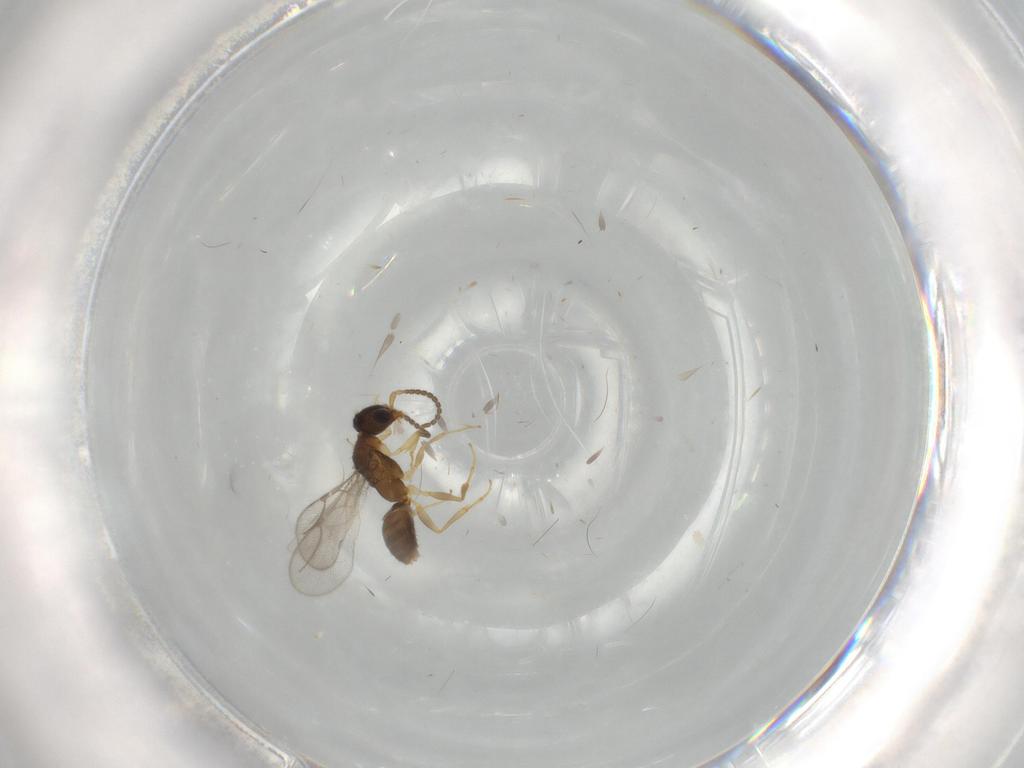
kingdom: Animalia
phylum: Arthropoda
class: Insecta
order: Hymenoptera
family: Bethylidae
